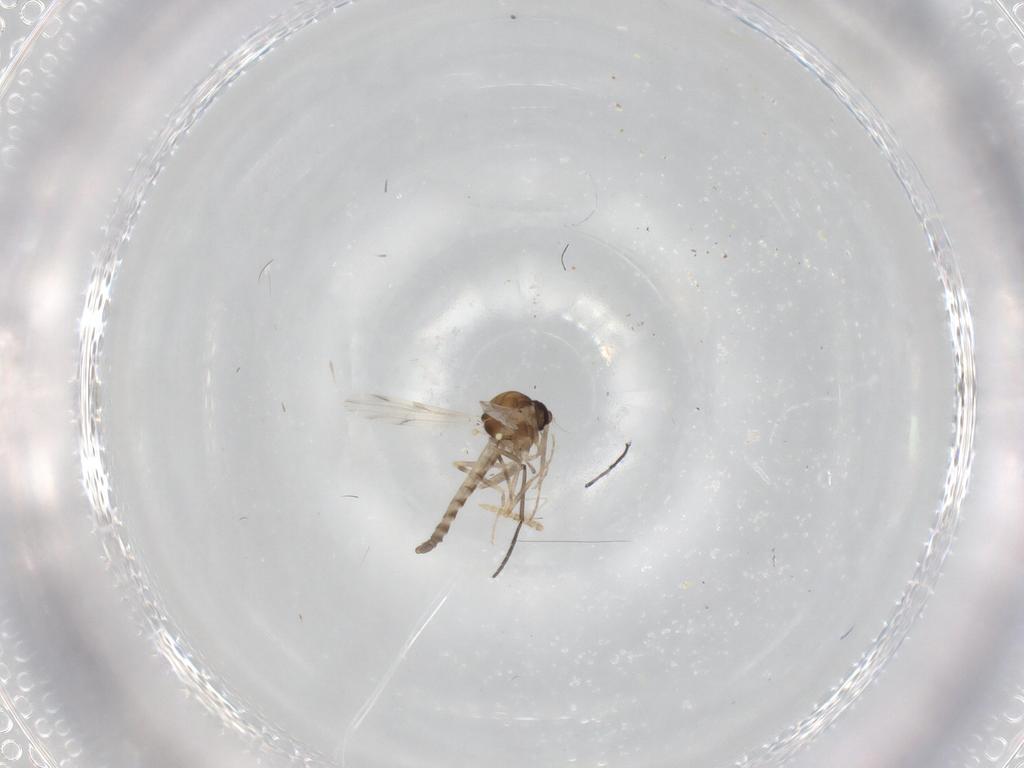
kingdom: Animalia
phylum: Arthropoda
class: Insecta
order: Diptera
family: Ceratopogonidae
